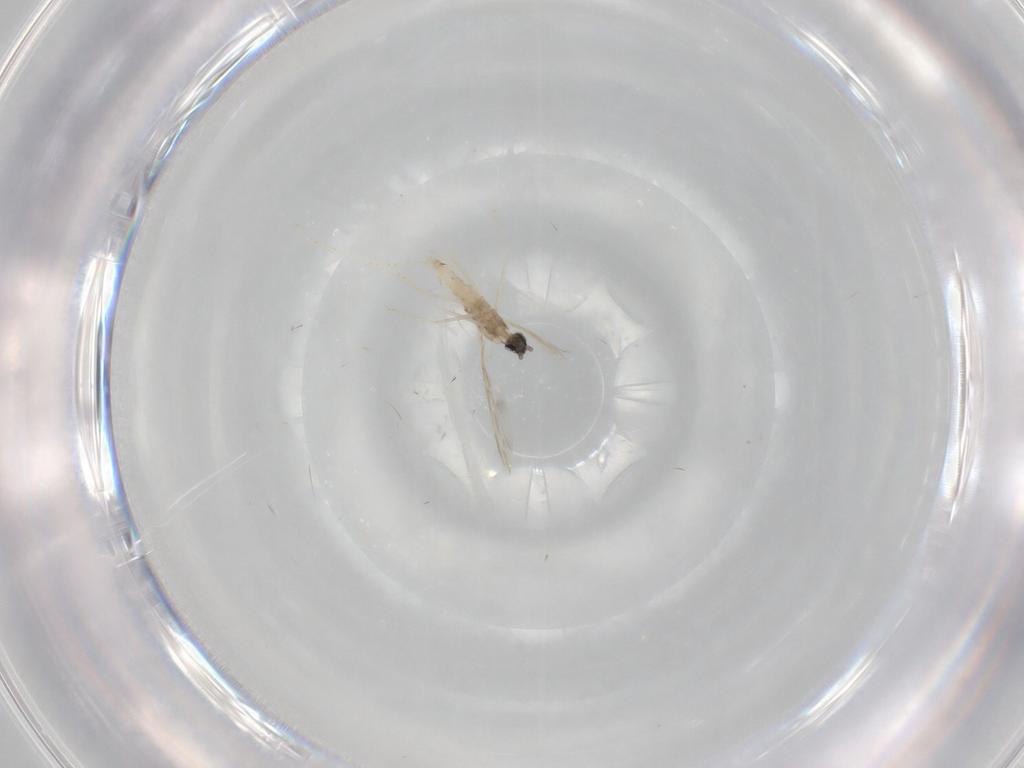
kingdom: Animalia
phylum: Arthropoda
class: Insecta
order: Diptera
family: Cecidomyiidae
